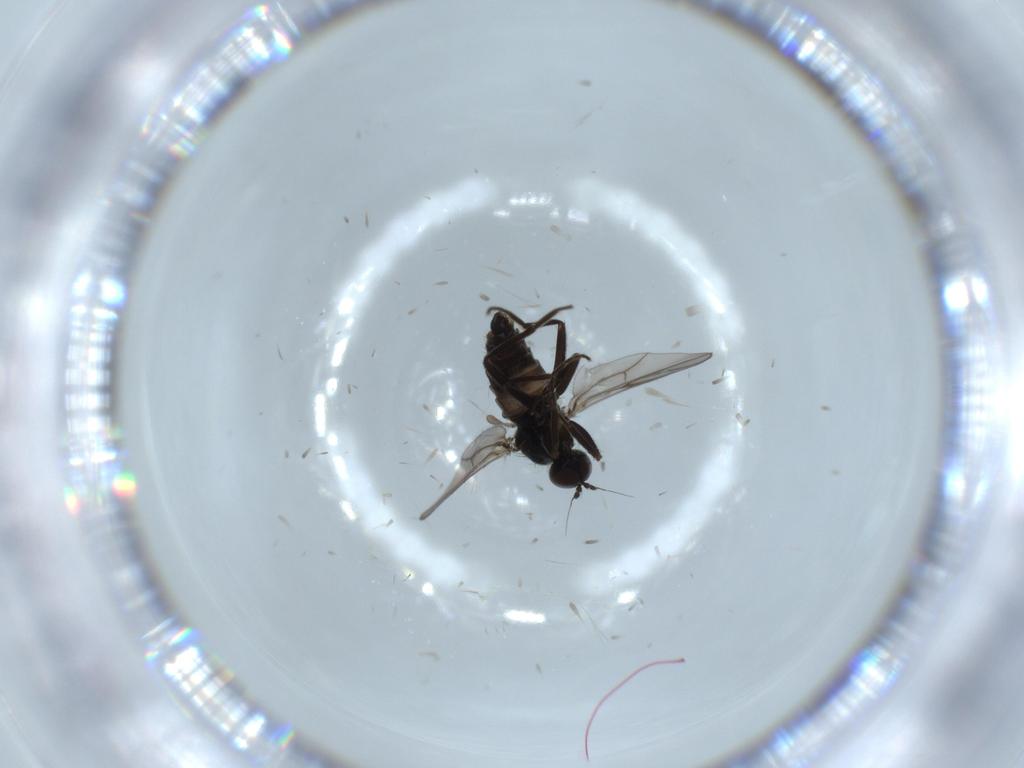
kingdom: Animalia
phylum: Arthropoda
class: Insecta
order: Diptera
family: Hybotidae
